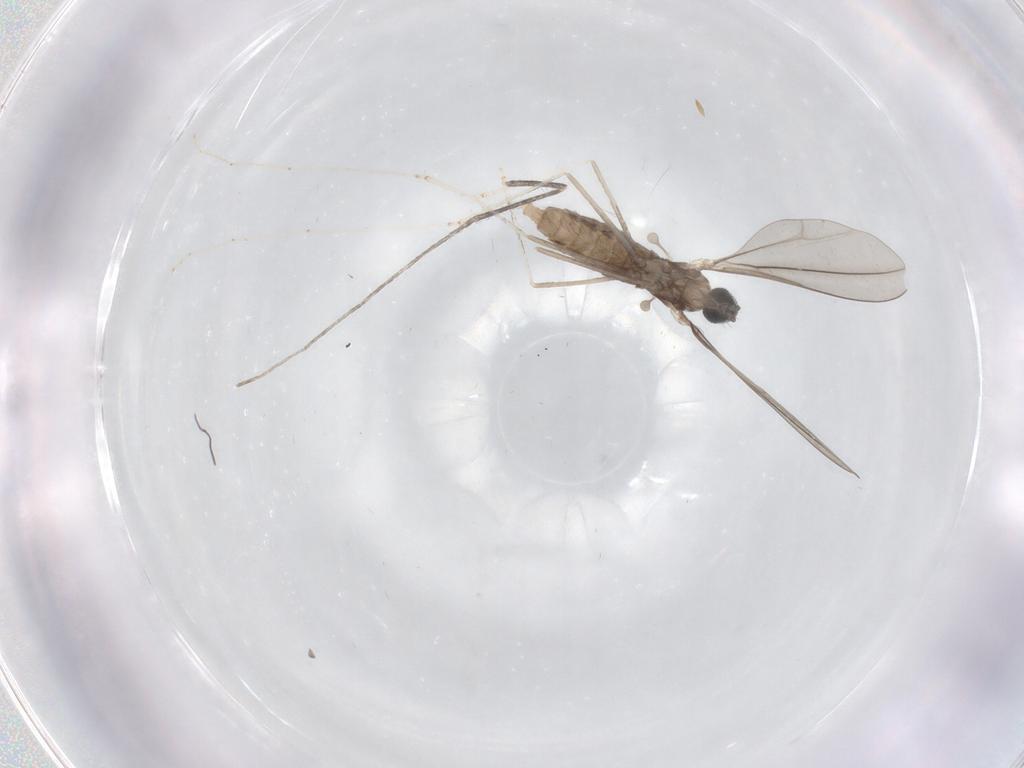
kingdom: Animalia
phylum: Arthropoda
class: Insecta
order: Diptera
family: Cecidomyiidae
